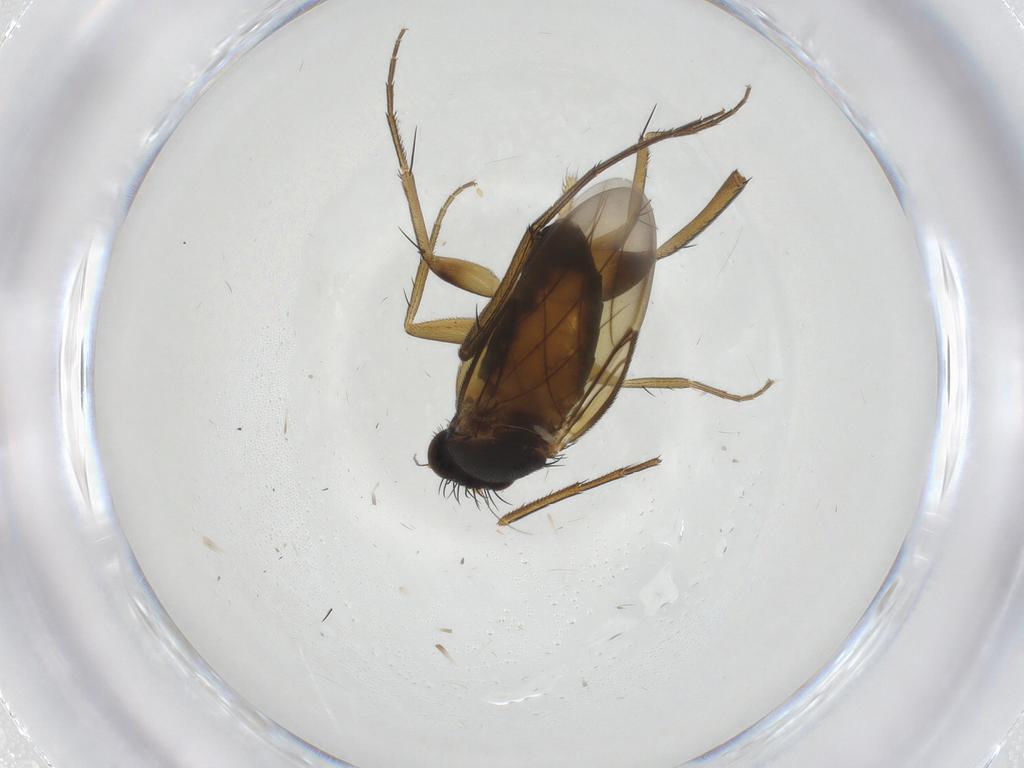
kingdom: Animalia
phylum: Arthropoda
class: Insecta
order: Diptera
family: Phoridae
